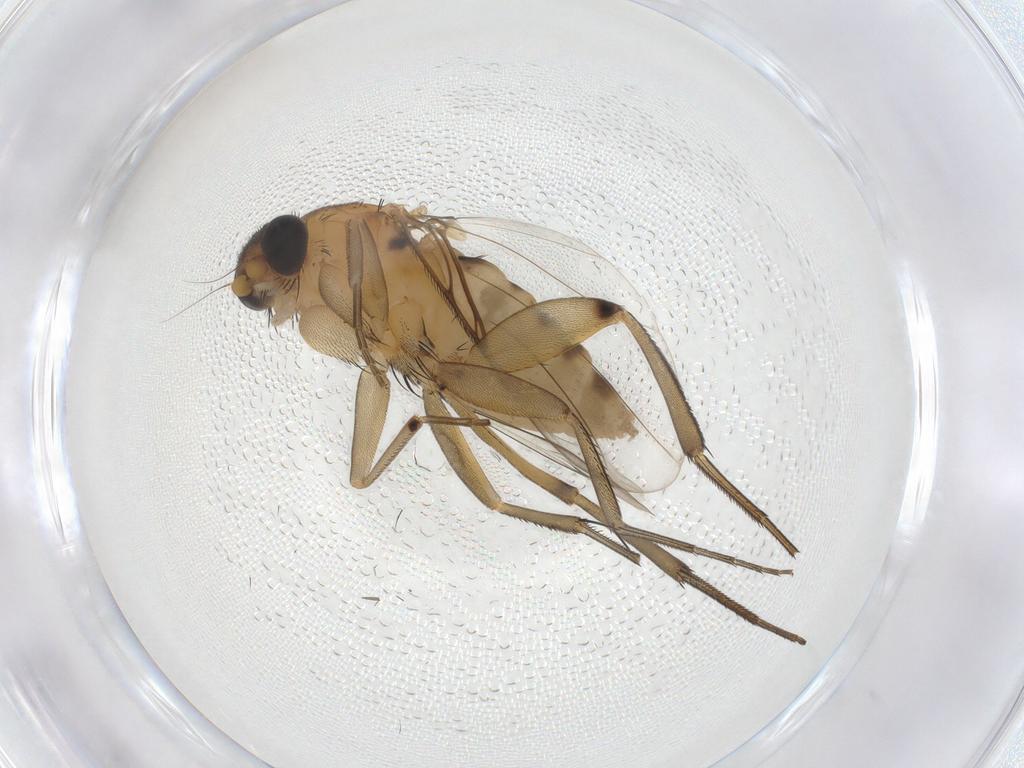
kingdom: Animalia
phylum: Arthropoda
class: Insecta
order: Diptera
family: Phoridae
